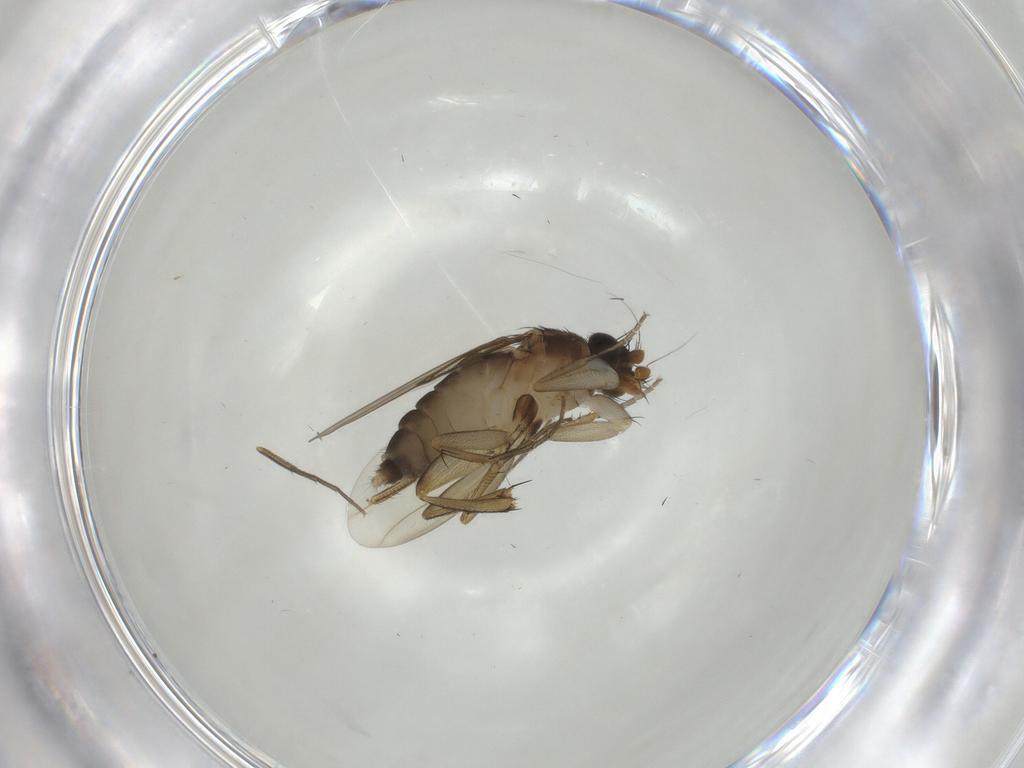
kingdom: Animalia
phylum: Arthropoda
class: Insecta
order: Diptera
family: Phoridae
